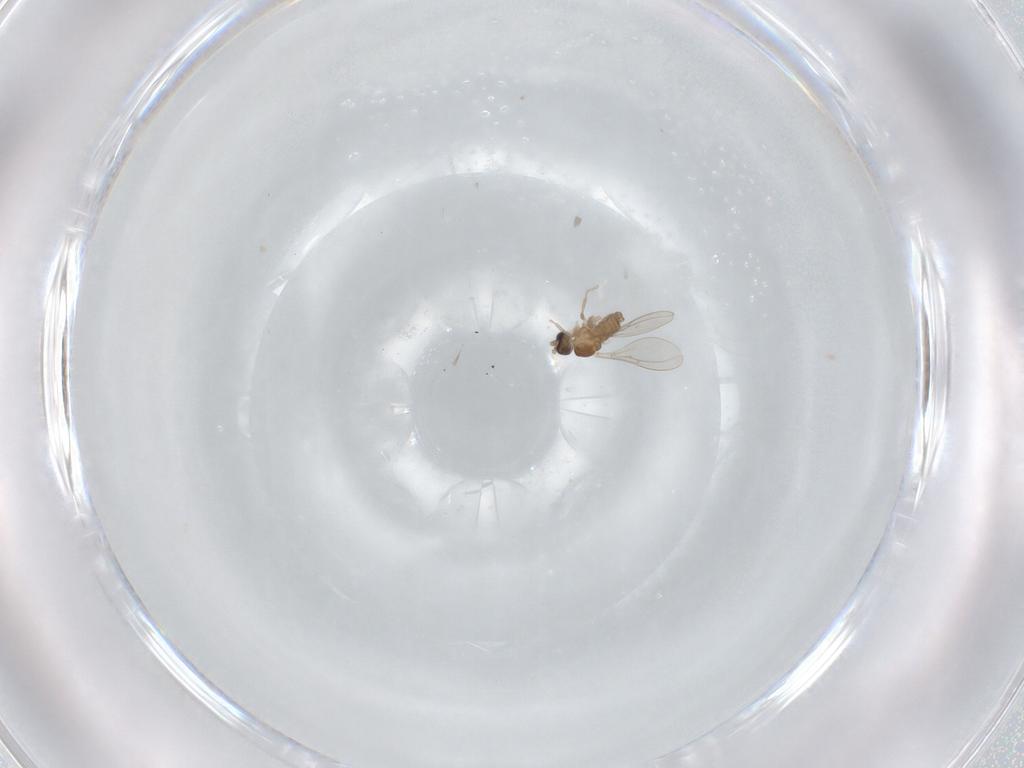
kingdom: Animalia
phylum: Arthropoda
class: Insecta
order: Diptera
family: Cecidomyiidae
